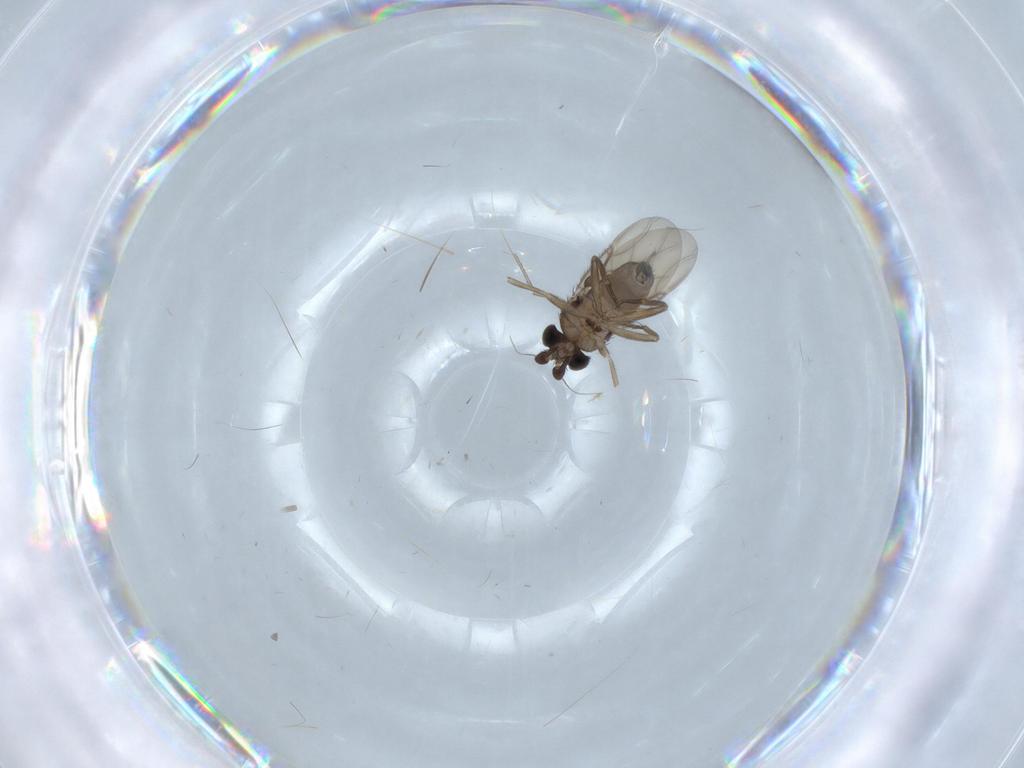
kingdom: Animalia
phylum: Arthropoda
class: Insecta
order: Diptera
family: Phoridae
